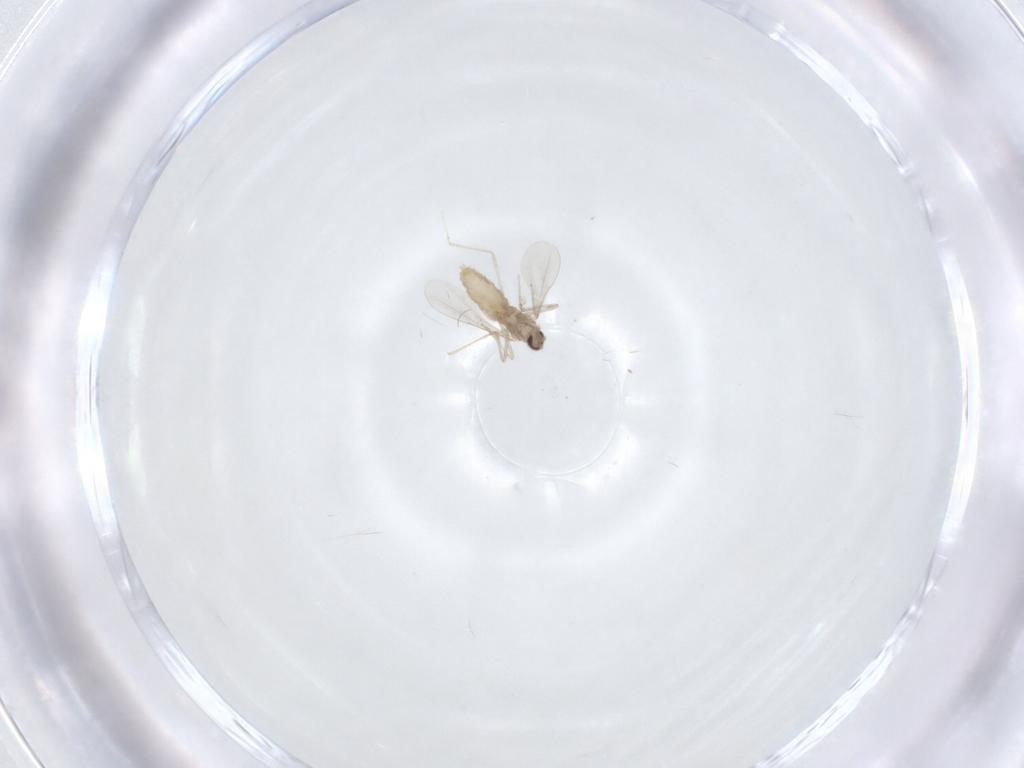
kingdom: Animalia
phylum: Arthropoda
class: Insecta
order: Diptera
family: Cecidomyiidae
